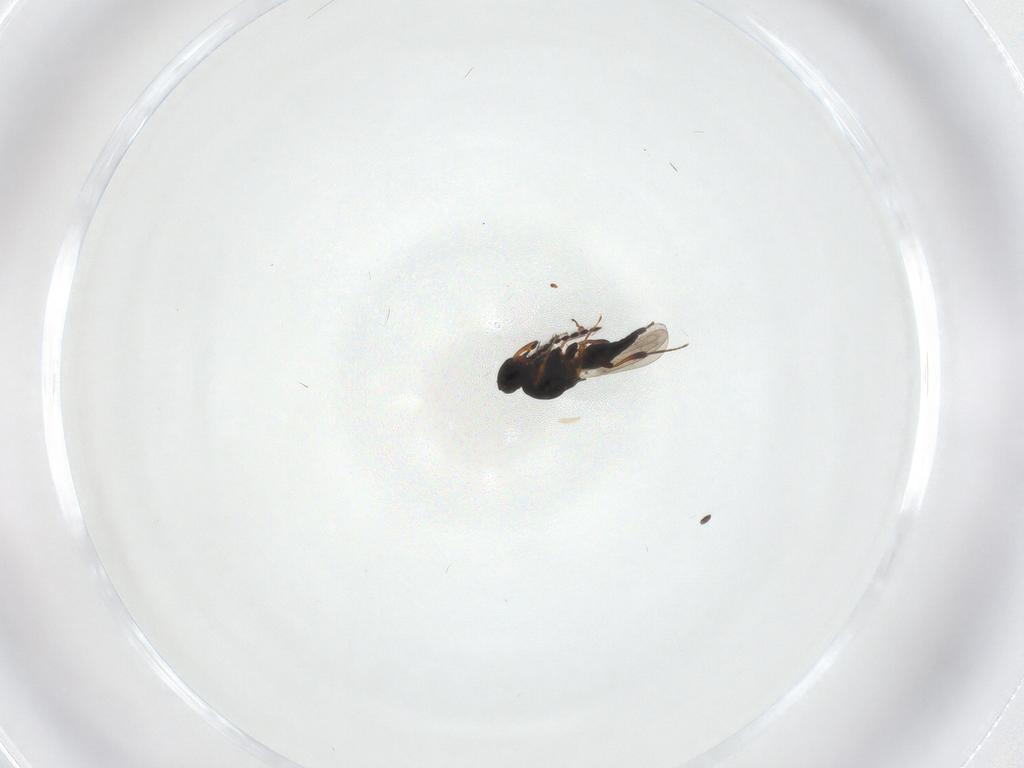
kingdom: Animalia
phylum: Arthropoda
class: Insecta
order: Hymenoptera
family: Platygastridae
